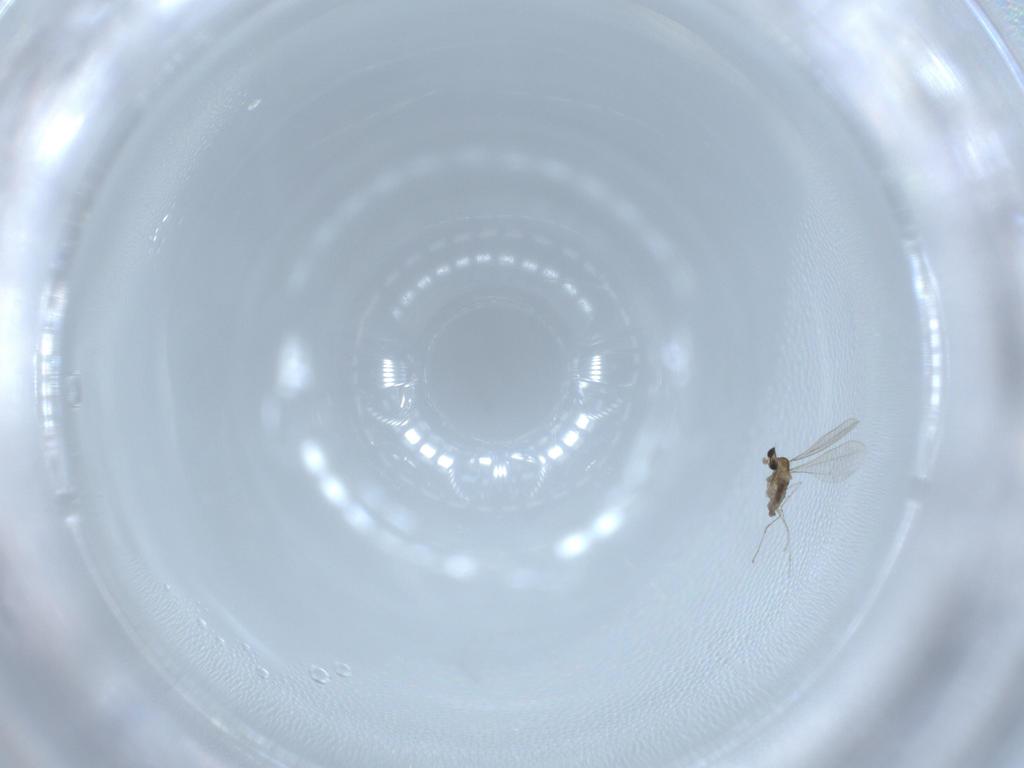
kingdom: Animalia
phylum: Arthropoda
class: Insecta
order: Diptera
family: Sciaridae
